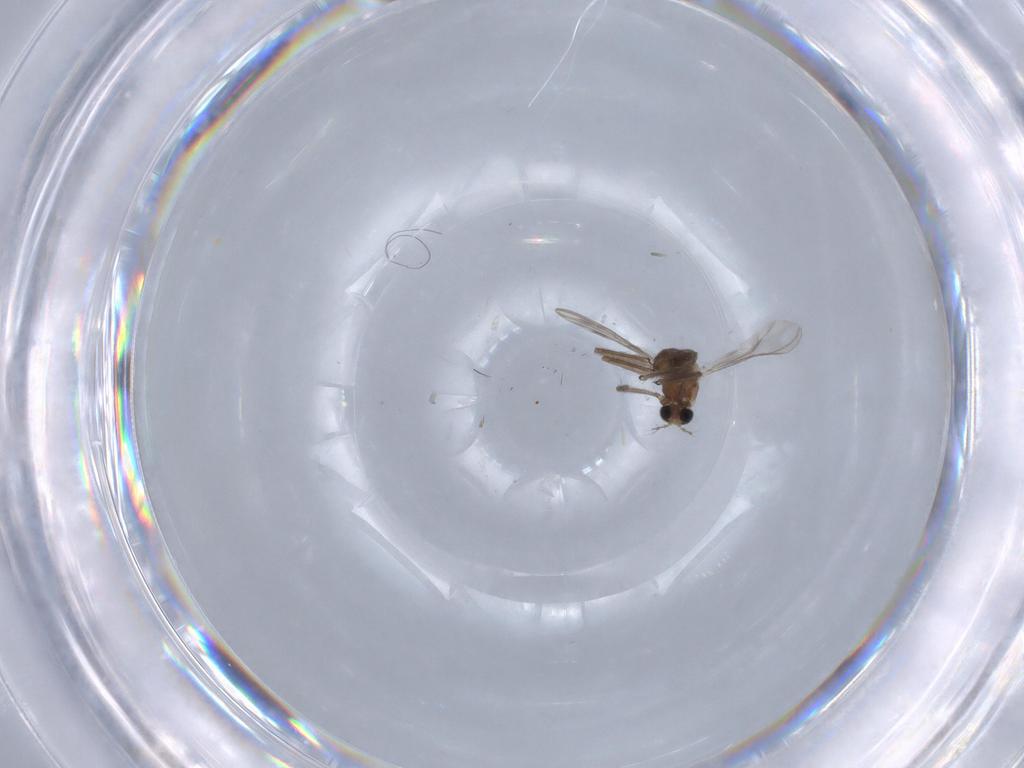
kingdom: Animalia
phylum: Arthropoda
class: Insecta
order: Diptera
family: Chironomidae
